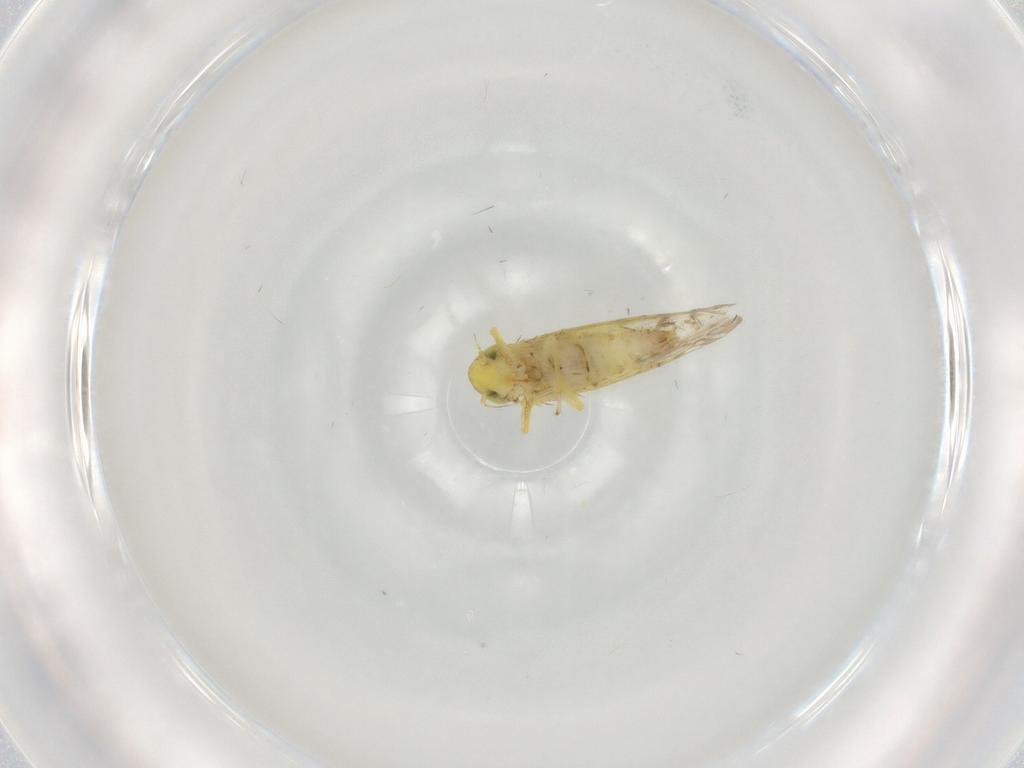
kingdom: Animalia
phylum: Arthropoda
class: Insecta
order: Hemiptera
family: Cicadellidae
